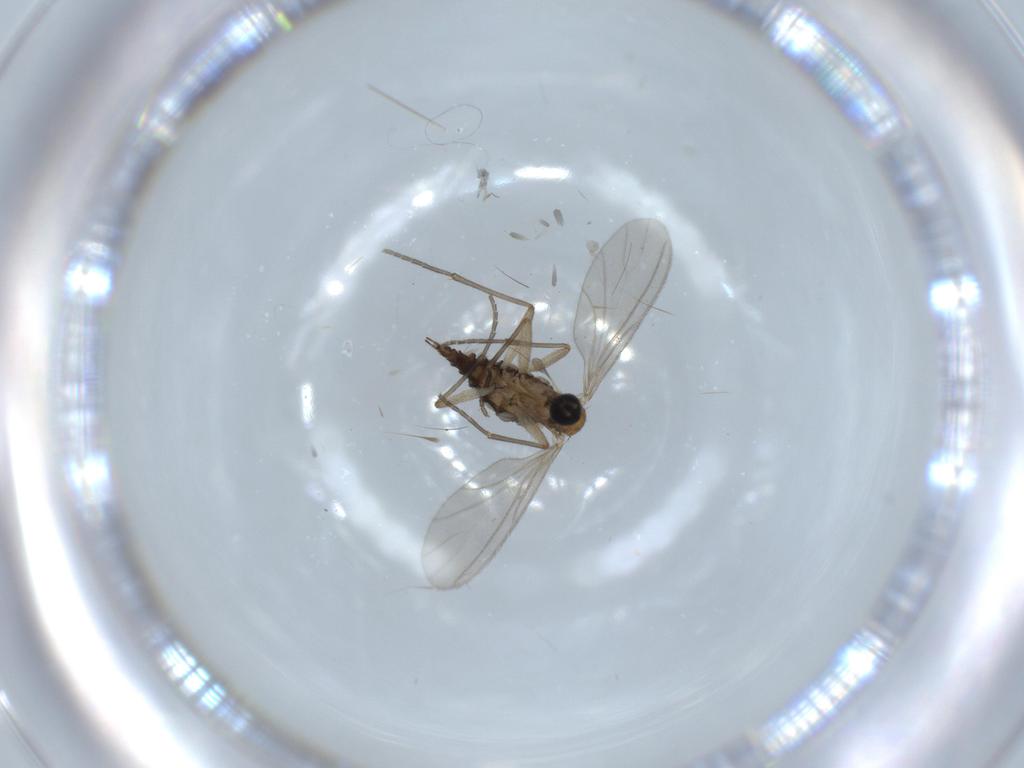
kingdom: Animalia
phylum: Arthropoda
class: Insecta
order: Diptera
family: Sciaridae
